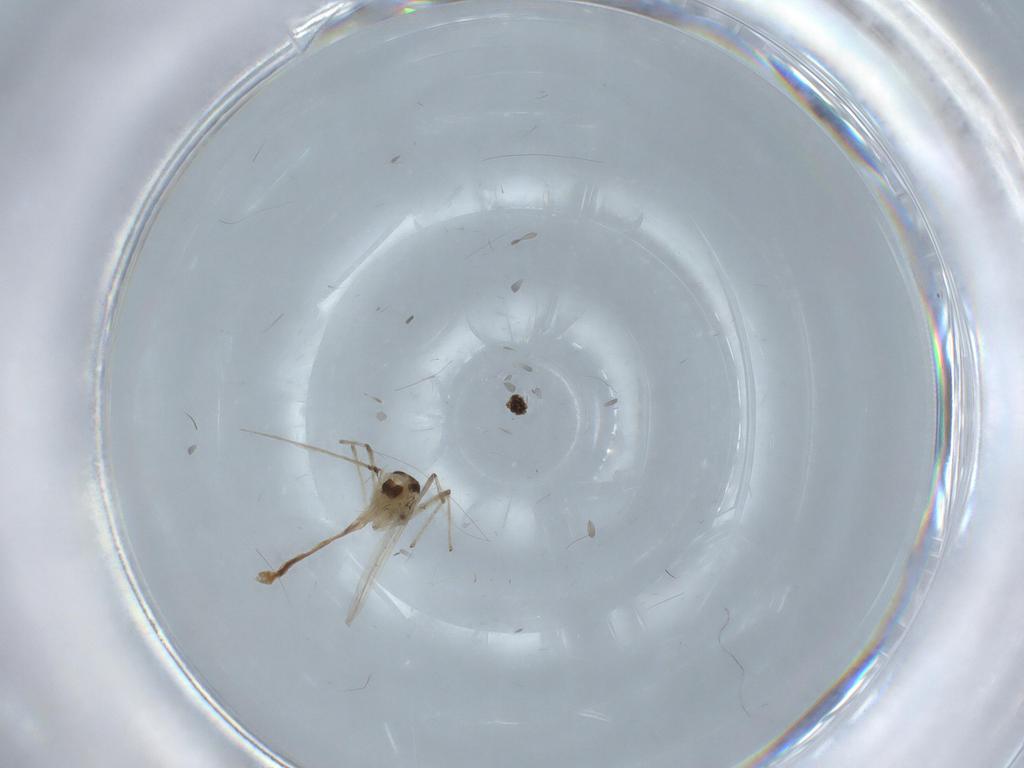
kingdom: Animalia
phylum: Arthropoda
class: Insecta
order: Diptera
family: Chironomidae
